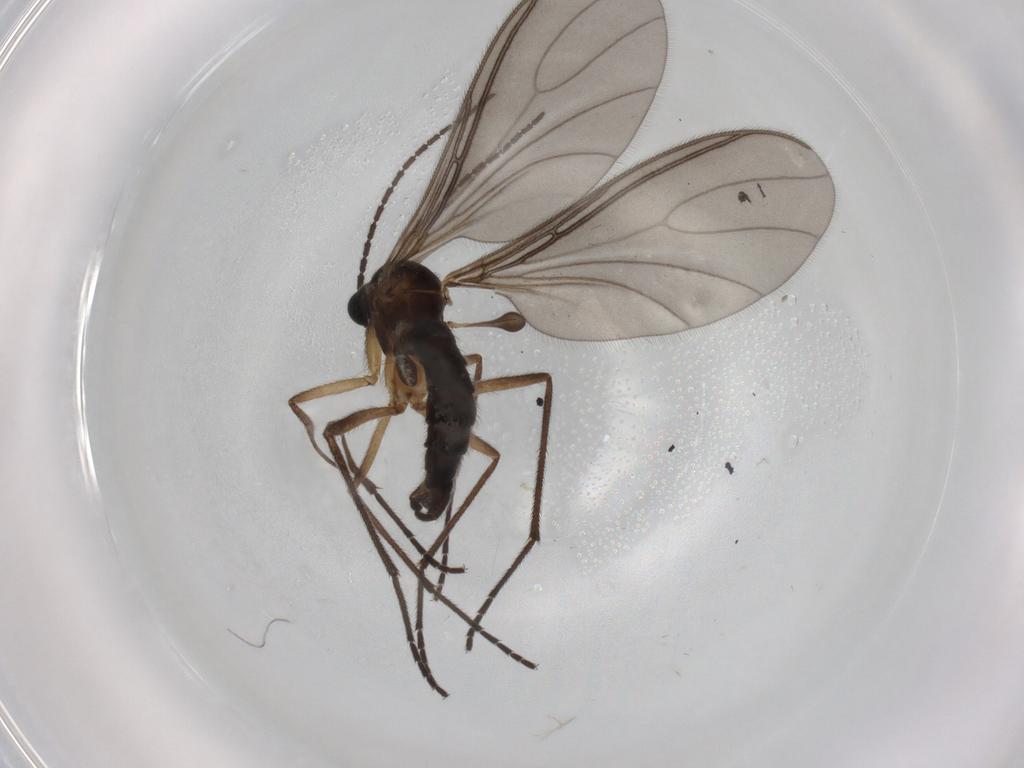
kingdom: Animalia
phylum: Arthropoda
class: Insecta
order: Diptera
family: Sciaridae
